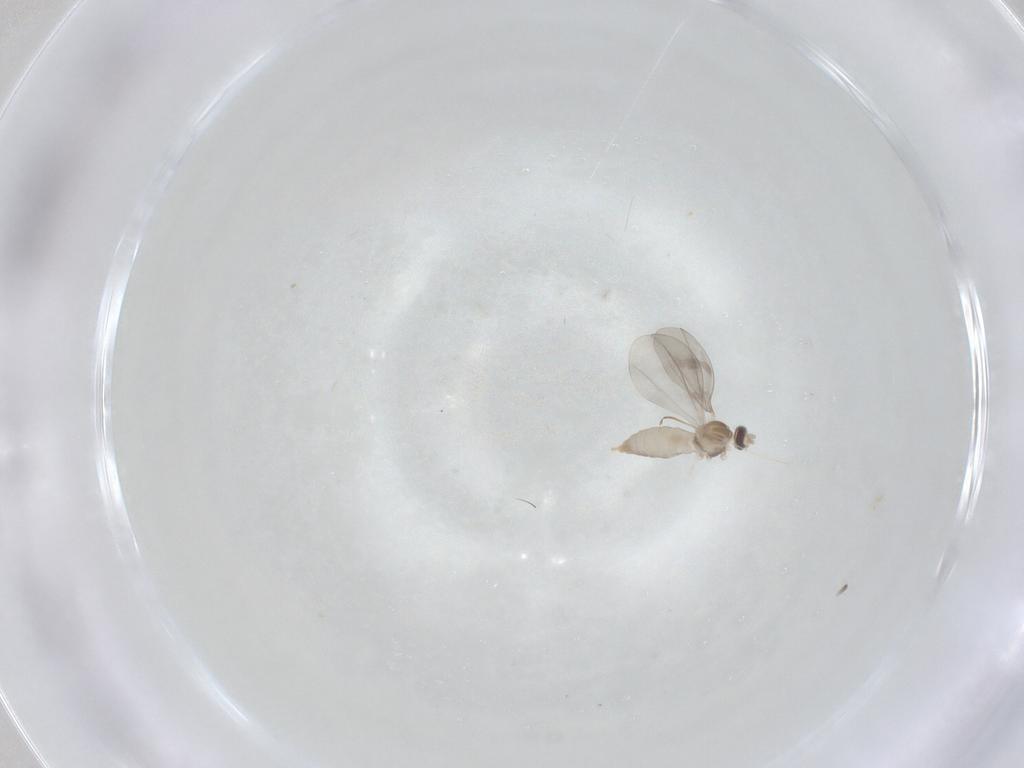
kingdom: Animalia
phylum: Arthropoda
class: Insecta
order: Diptera
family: Cecidomyiidae
